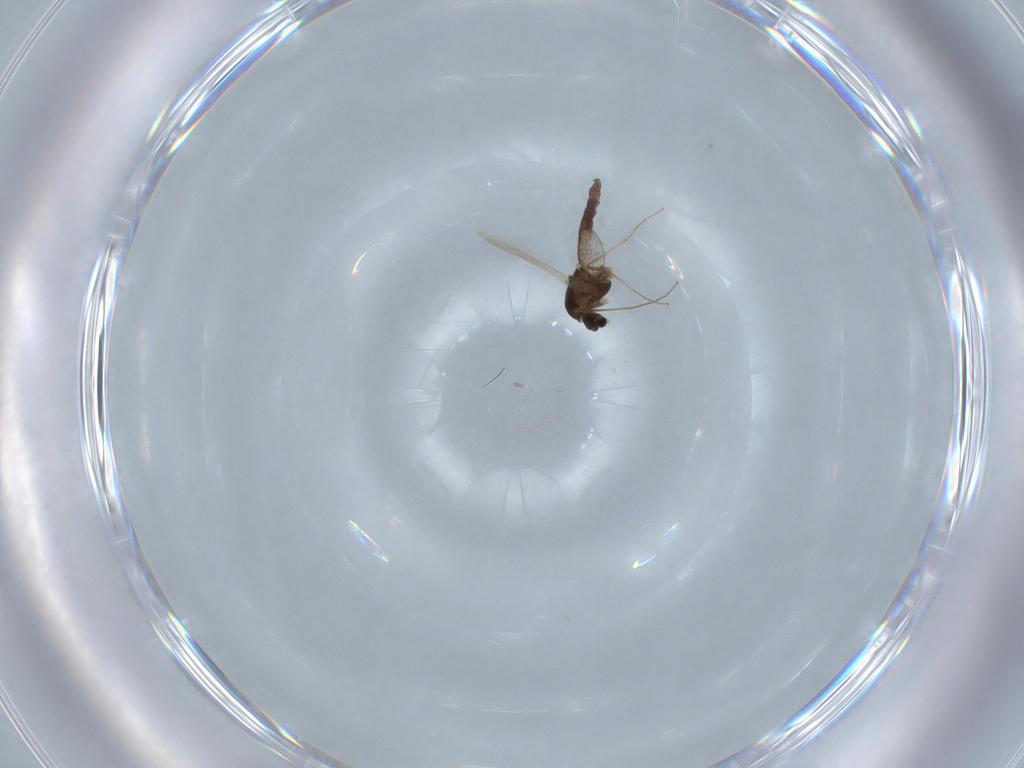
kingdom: Animalia
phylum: Arthropoda
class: Insecta
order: Diptera
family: Chironomidae
